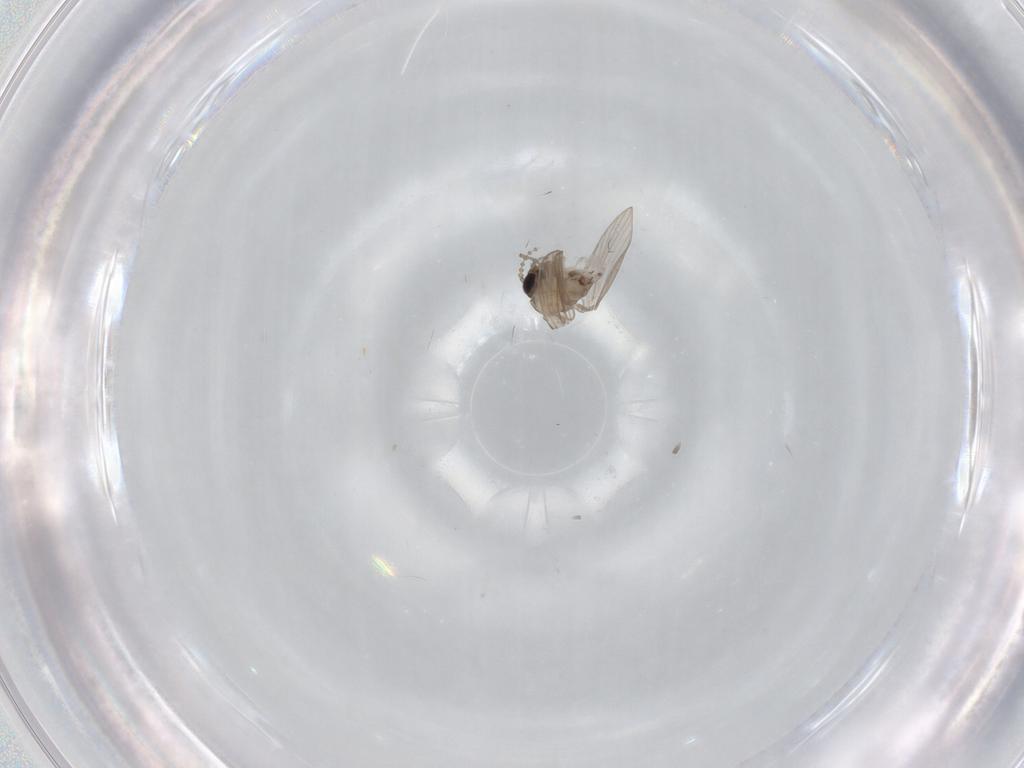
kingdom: Animalia
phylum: Arthropoda
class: Insecta
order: Diptera
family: Psychodidae
